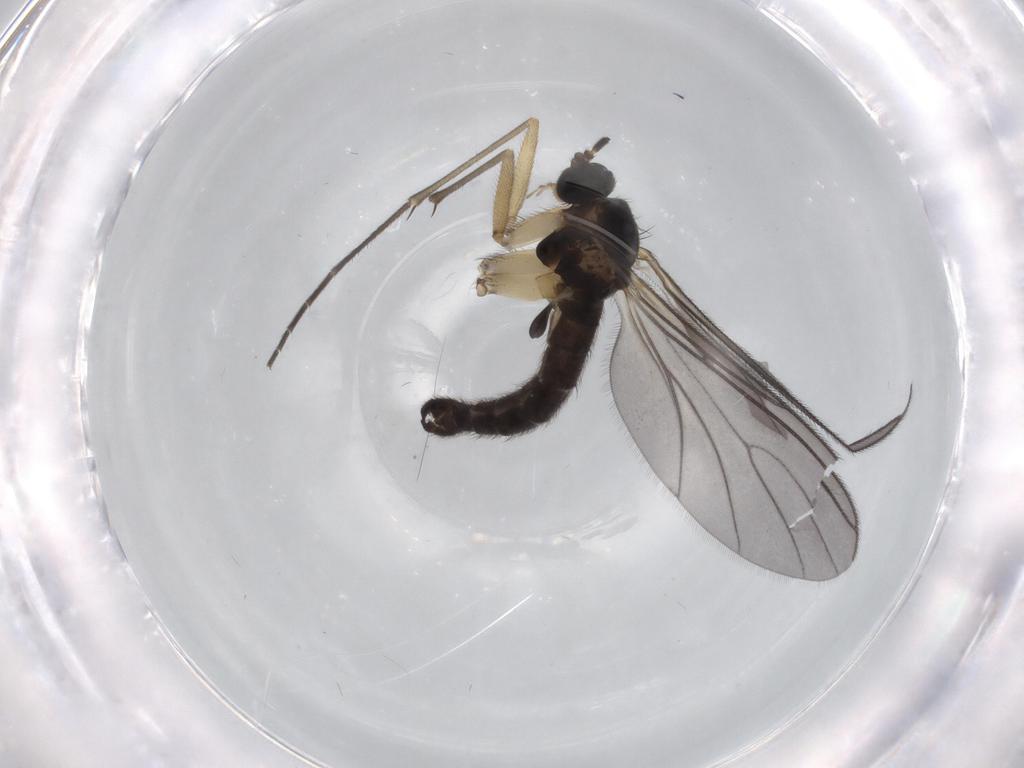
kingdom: Animalia
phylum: Arthropoda
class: Insecta
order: Diptera
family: Sciaridae
